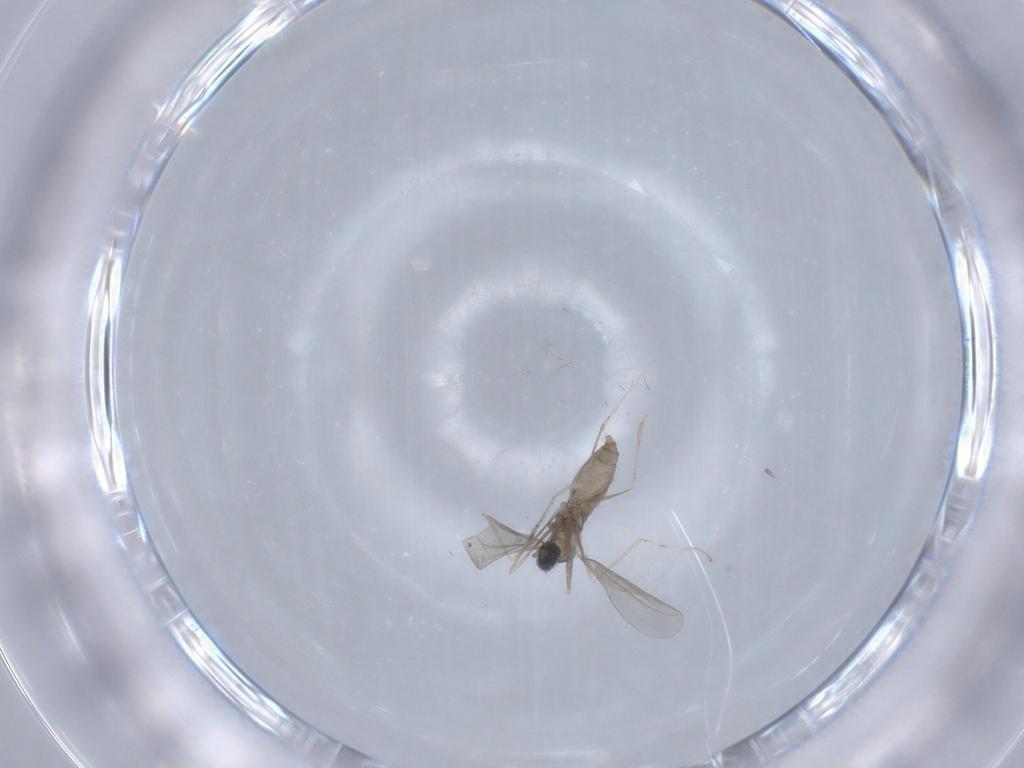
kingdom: Animalia
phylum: Arthropoda
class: Insecta
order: Diptera
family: Cecidomyiidae
